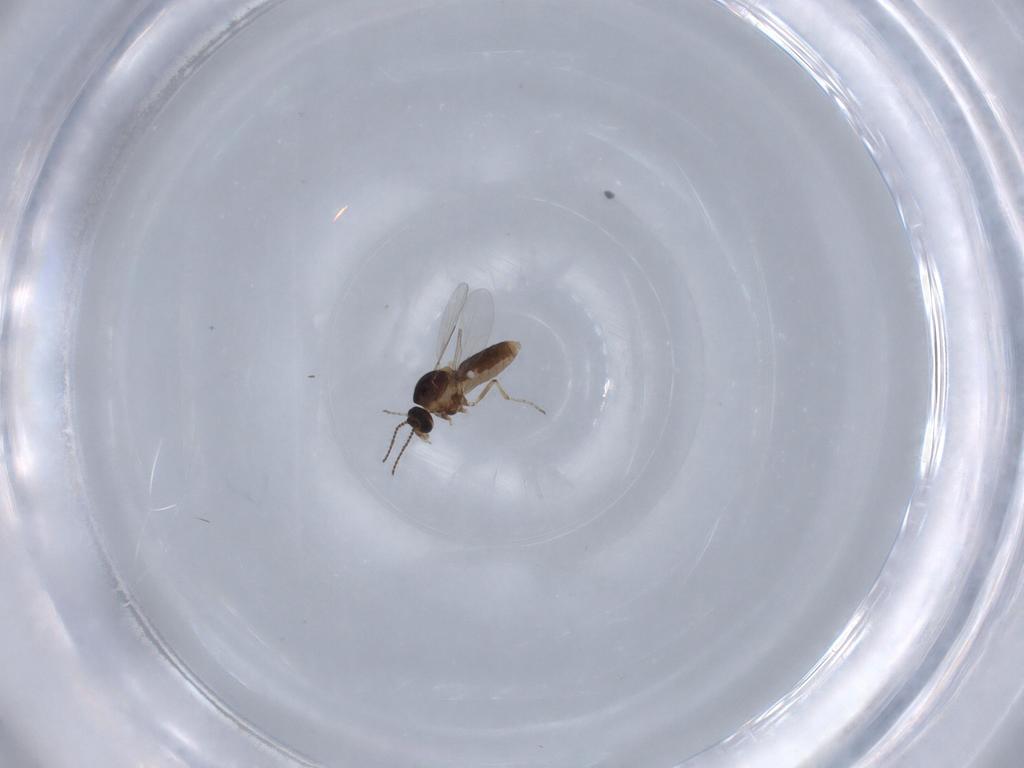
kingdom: Animalia
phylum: Arthropoda
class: Insecta
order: Diptera
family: Ceratopogonidae
